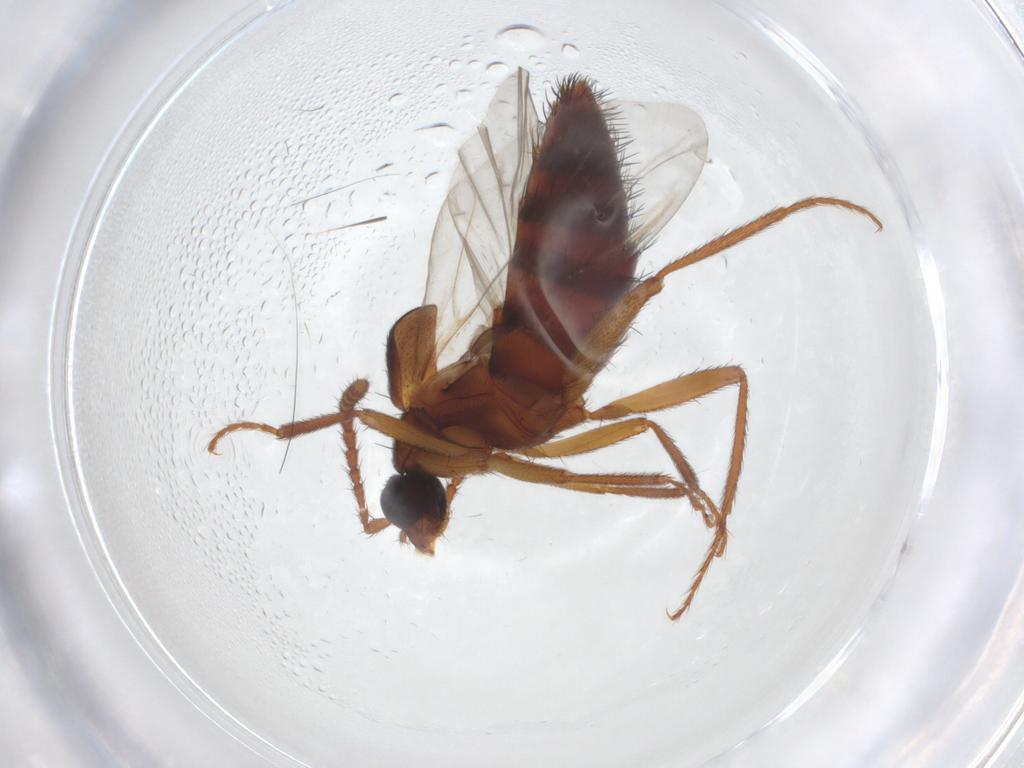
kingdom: Animalia
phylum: Arthropoda
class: Insecta
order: Coleoptera
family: Staphylinidae
